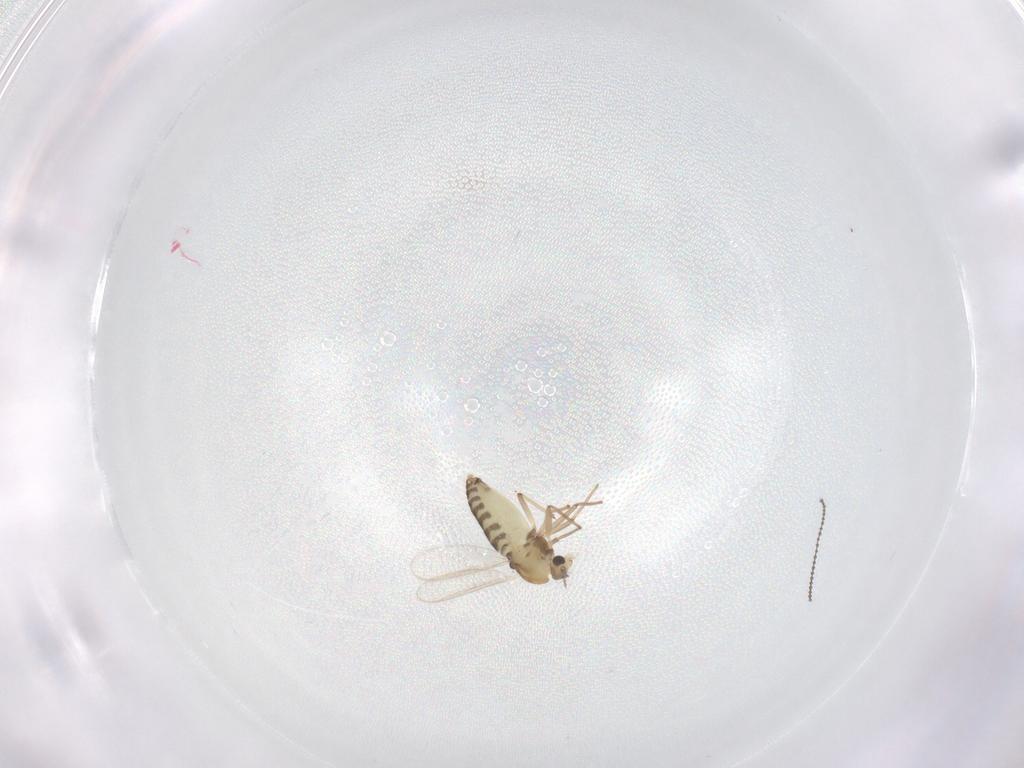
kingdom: Animalia
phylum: Arthropoda
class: Insecta
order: Diptera
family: Cecidomyiidae
